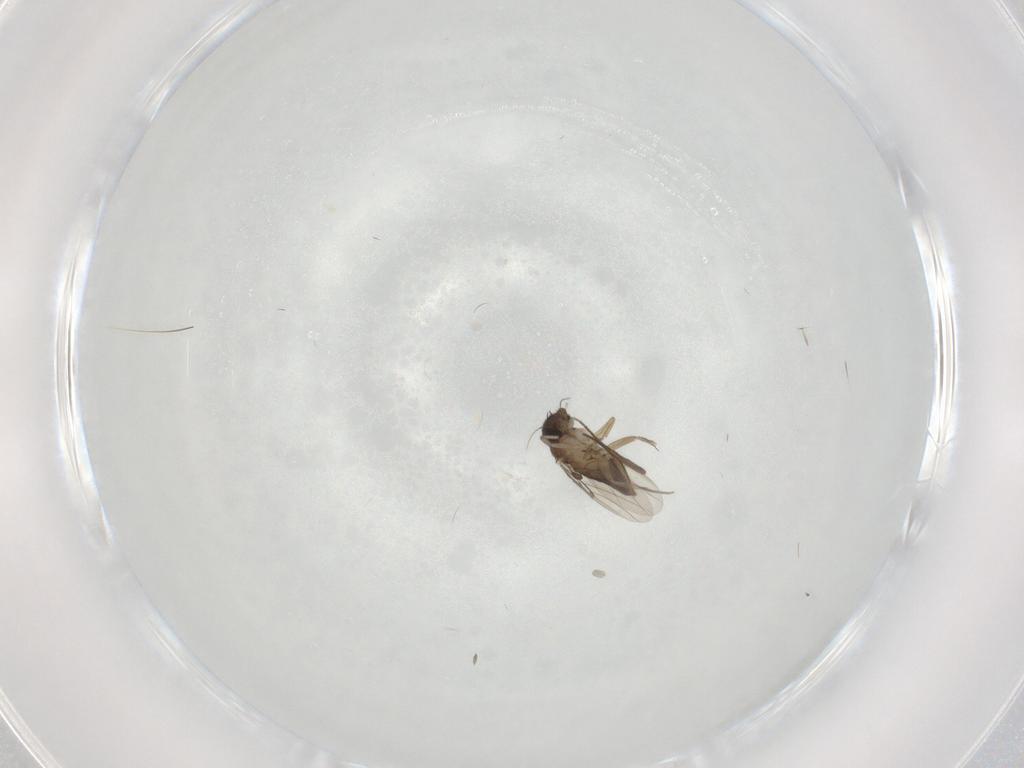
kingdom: Animalia
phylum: Arthropoda
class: Insecta
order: Diptera
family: Chironomidae
